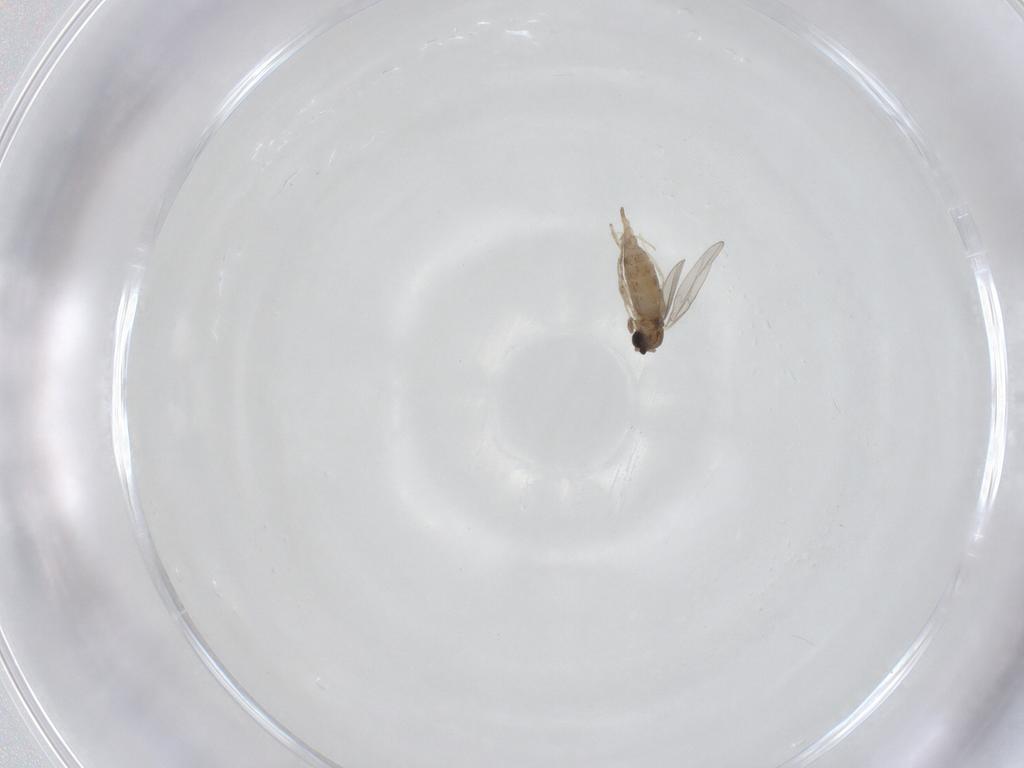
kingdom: Animalia
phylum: Arthropoda
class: Insecta
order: Diptera
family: Cecidomyiidae
